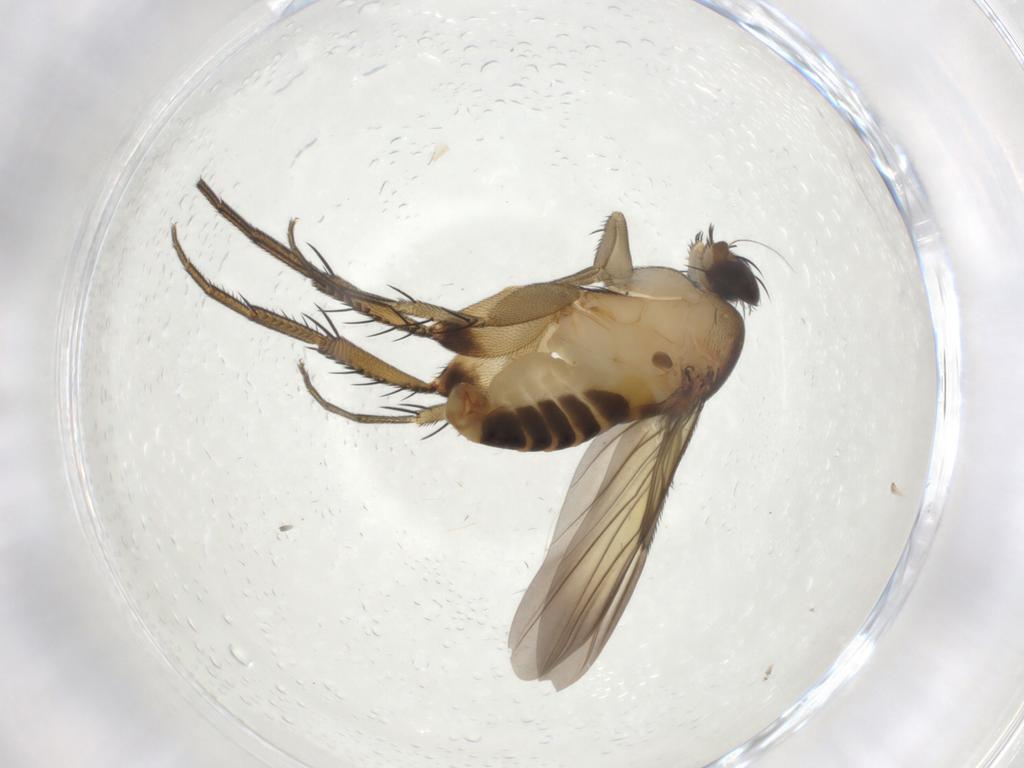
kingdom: Animalia
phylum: Arthropoda
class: Insecta
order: Diptera
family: Phoridae
